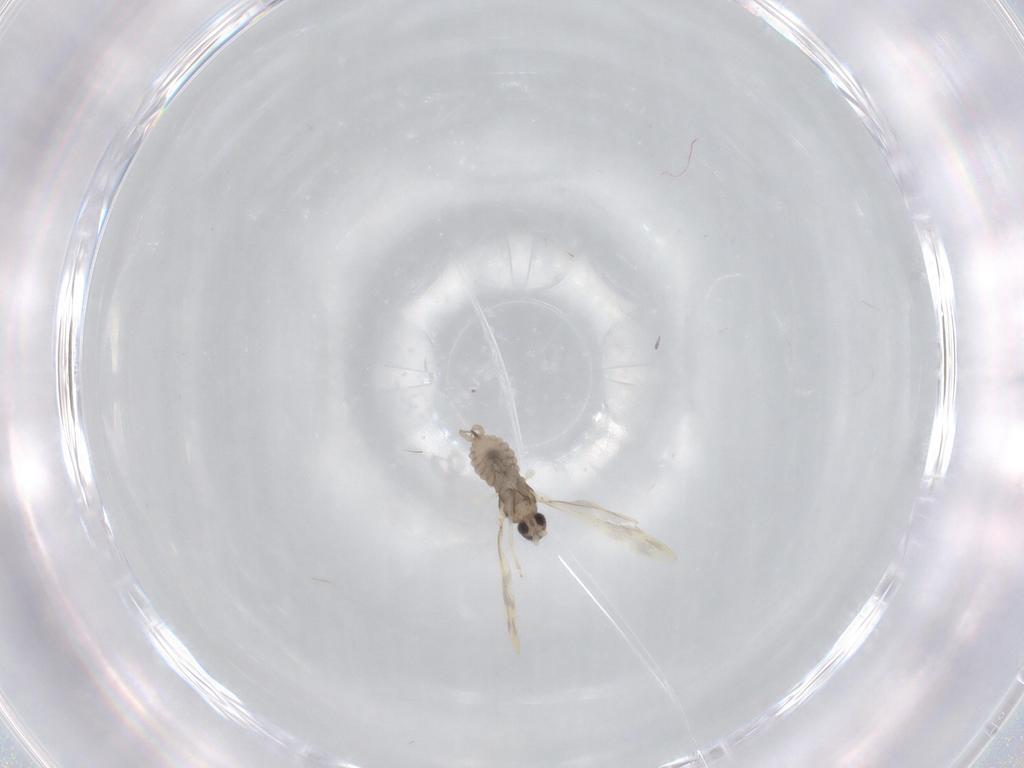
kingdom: Animalia
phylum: Arthropoda
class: Insecta
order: Diptera
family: Cecidomyiidae
